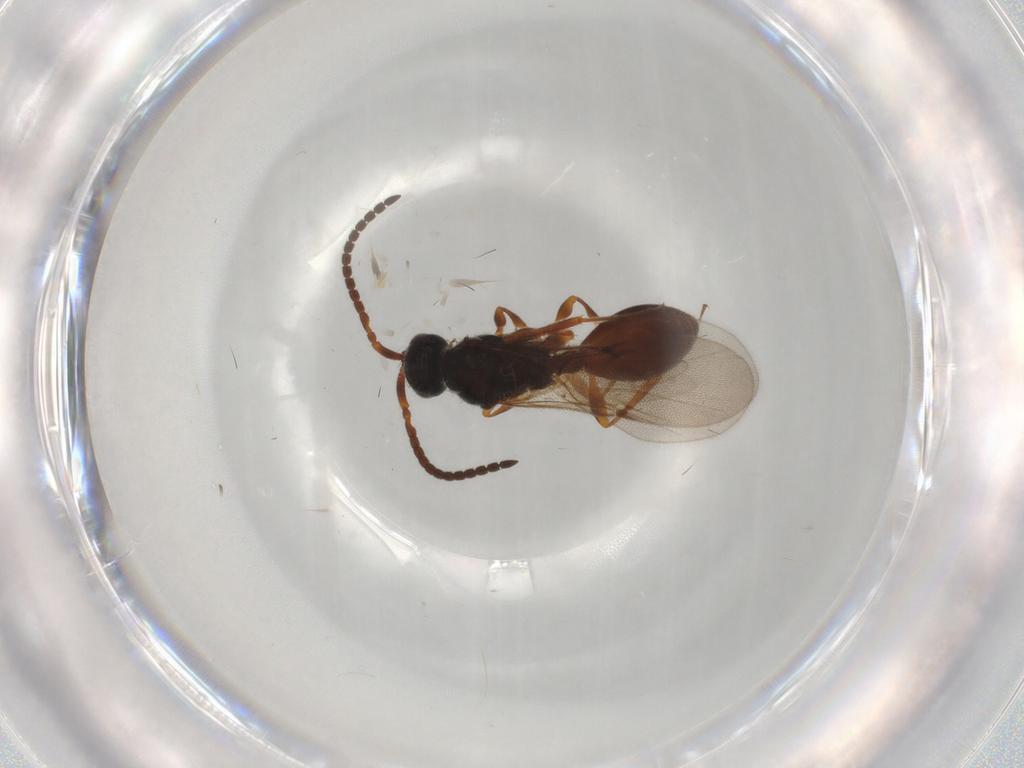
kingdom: Animalia
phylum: Arthropoda
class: Insecta
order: Hymenoptera
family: Diapriidae
